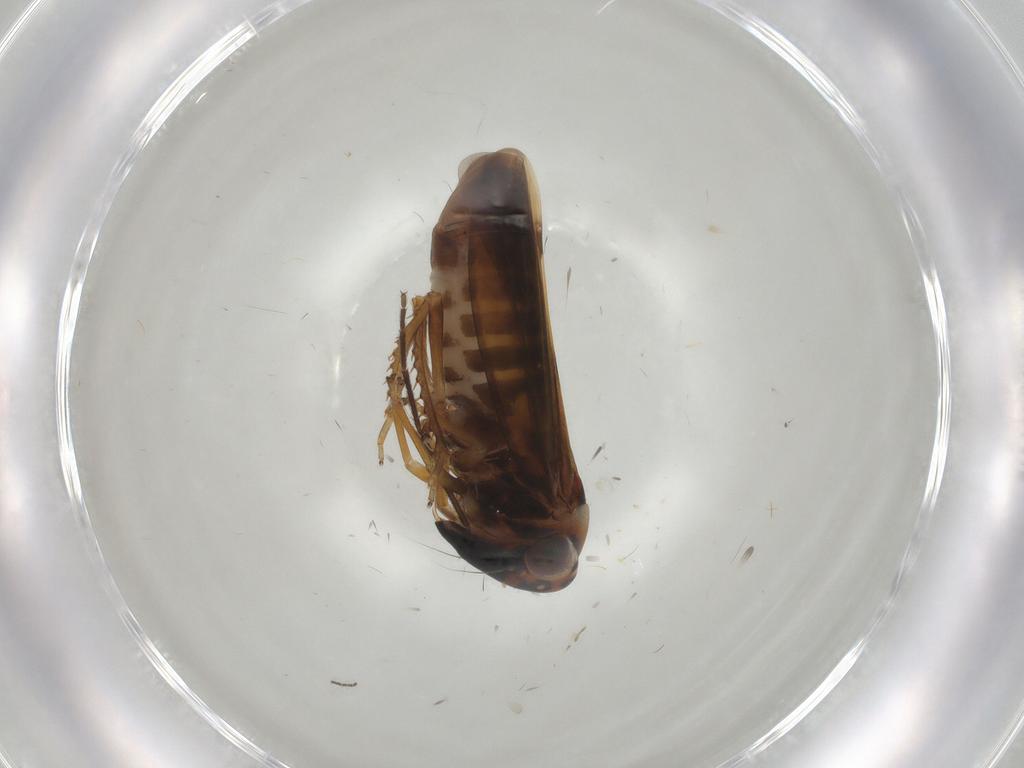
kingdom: Animalia
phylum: Arthropoda
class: Insecta
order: Hemiptera
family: Cicadellidae
